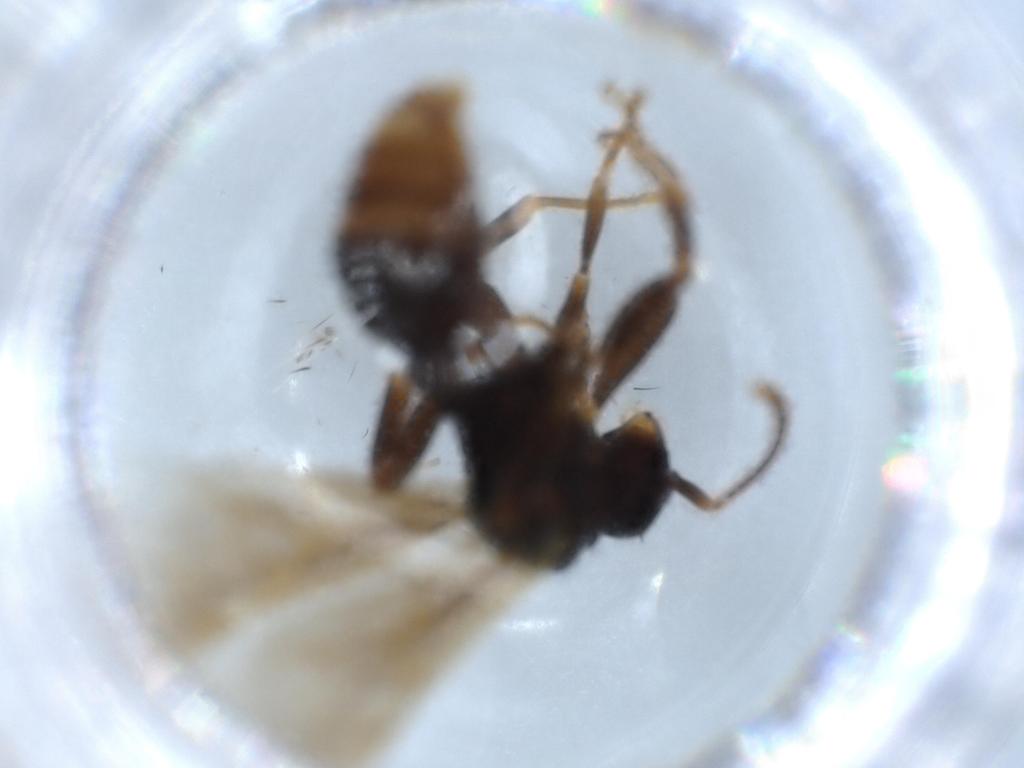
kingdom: Animalia
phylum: Arthropoda
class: Insecta
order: Hymenoptera
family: Formicidae
